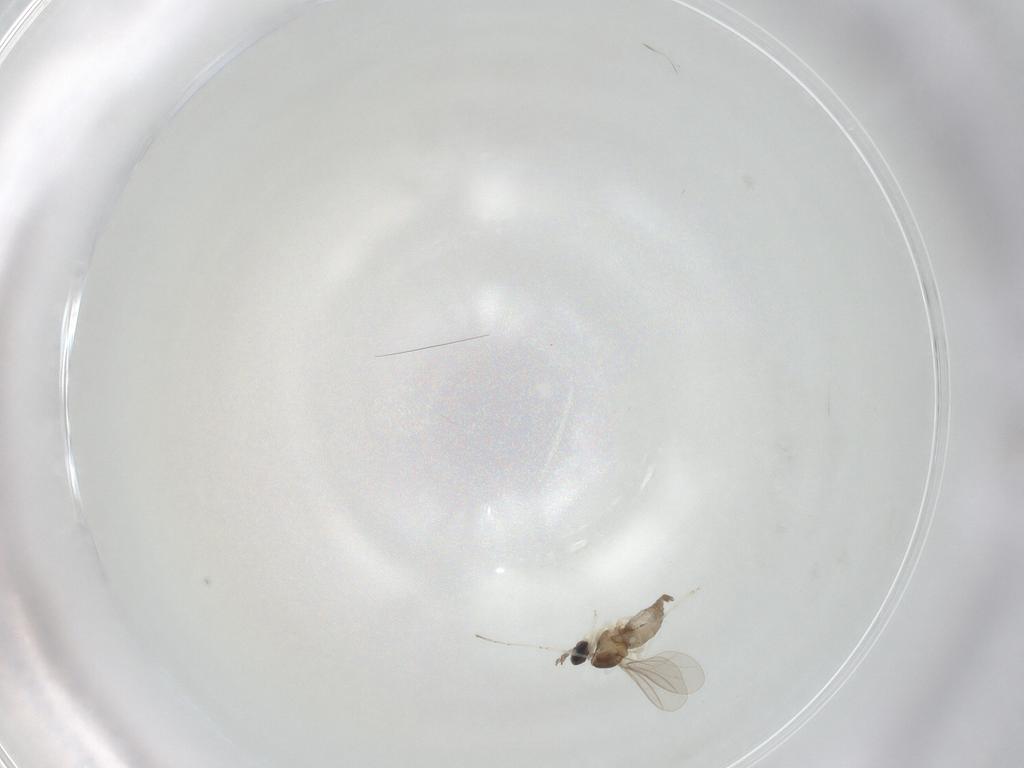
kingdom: Animalia
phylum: Arthropoda
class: Insecta
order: Diptera
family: Cecidomyiidae
